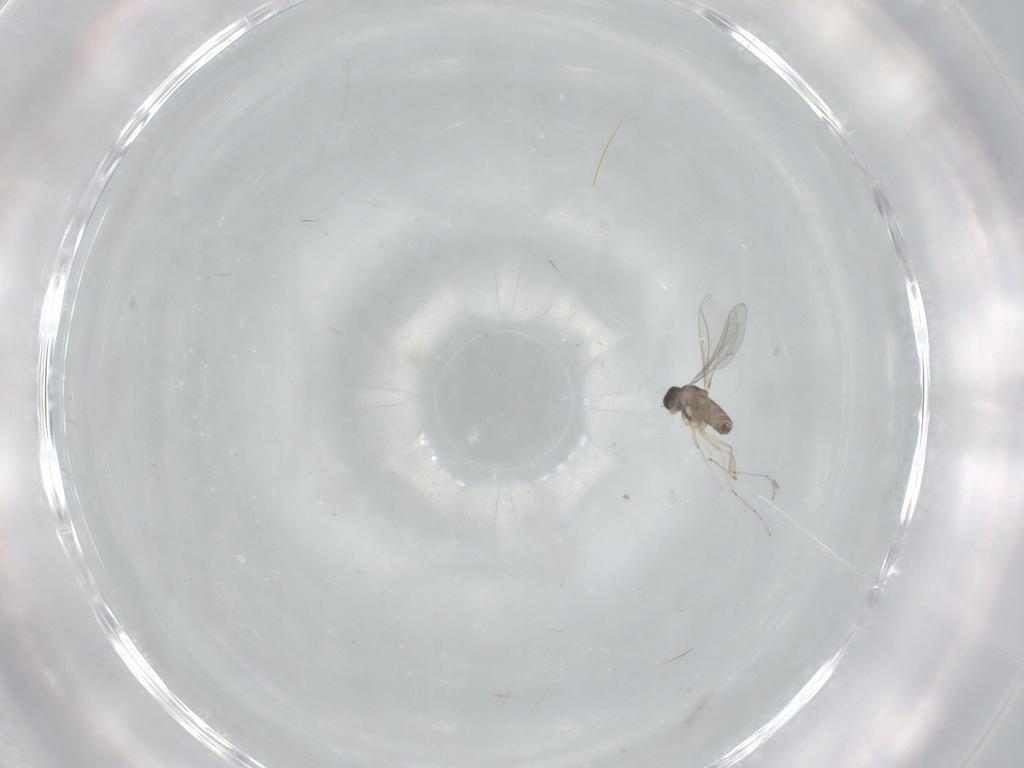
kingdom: Animalia
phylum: Arthropoda
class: Insecta
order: Diptera
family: Cecidomyiidae
